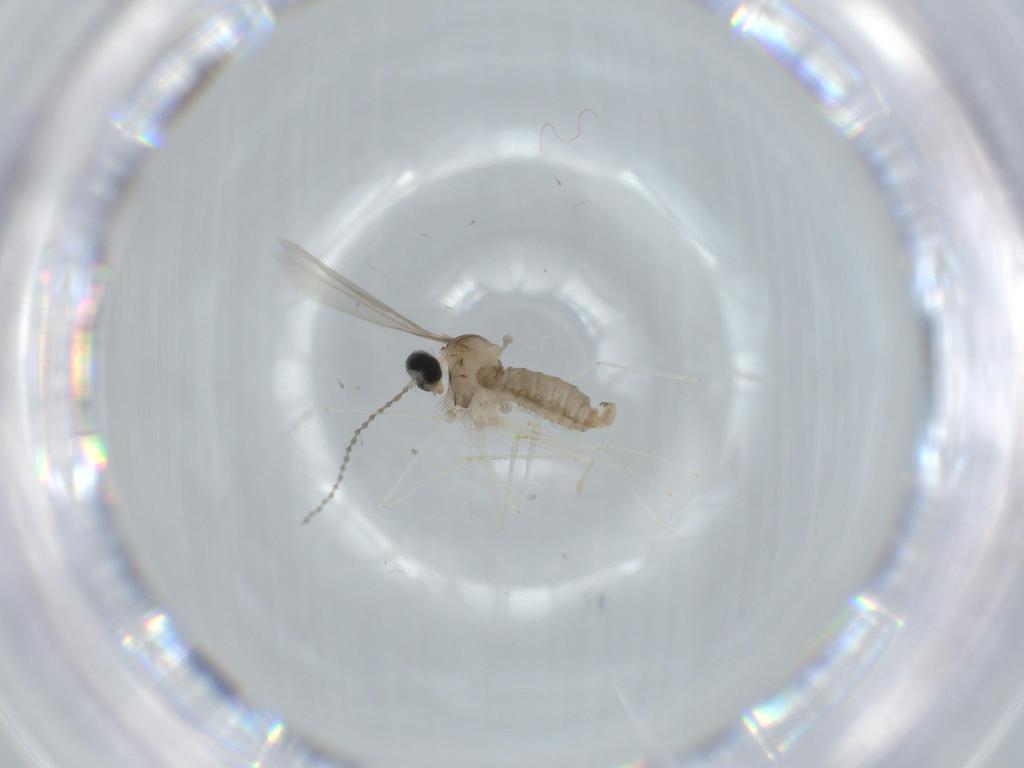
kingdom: Animalia
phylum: Arthropoda
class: Insecta
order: Diptera
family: Cecidomyiidae
